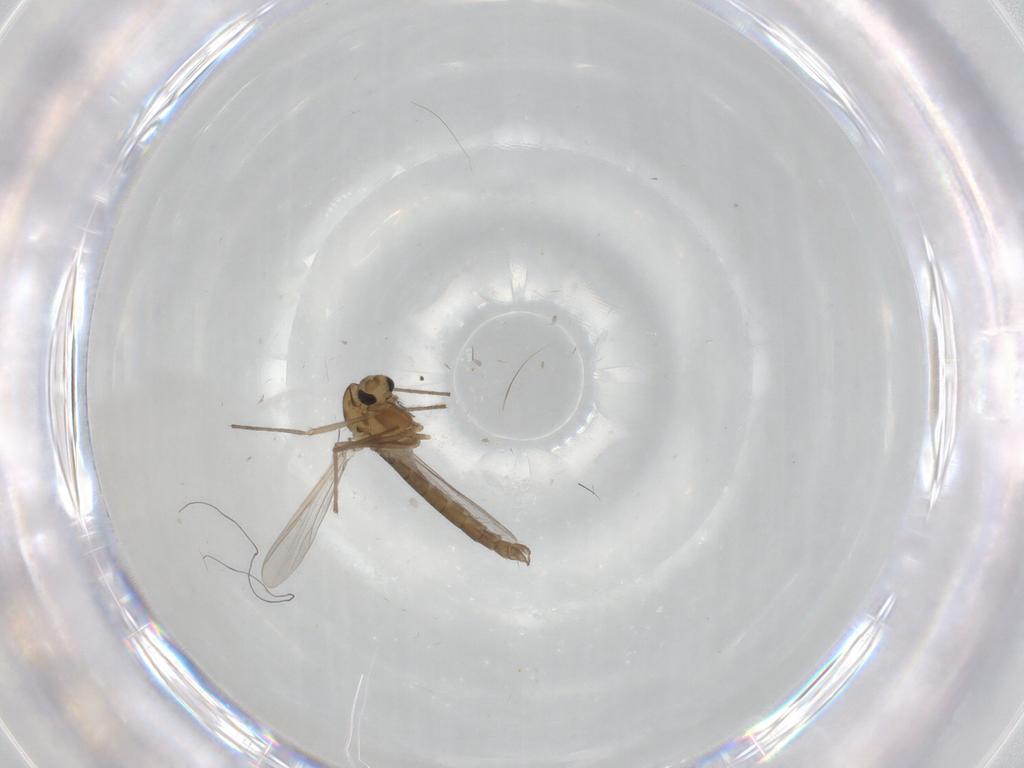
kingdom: Animalia
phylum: Arthropoda
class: Insecta
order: Diptera
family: Chironomidae
